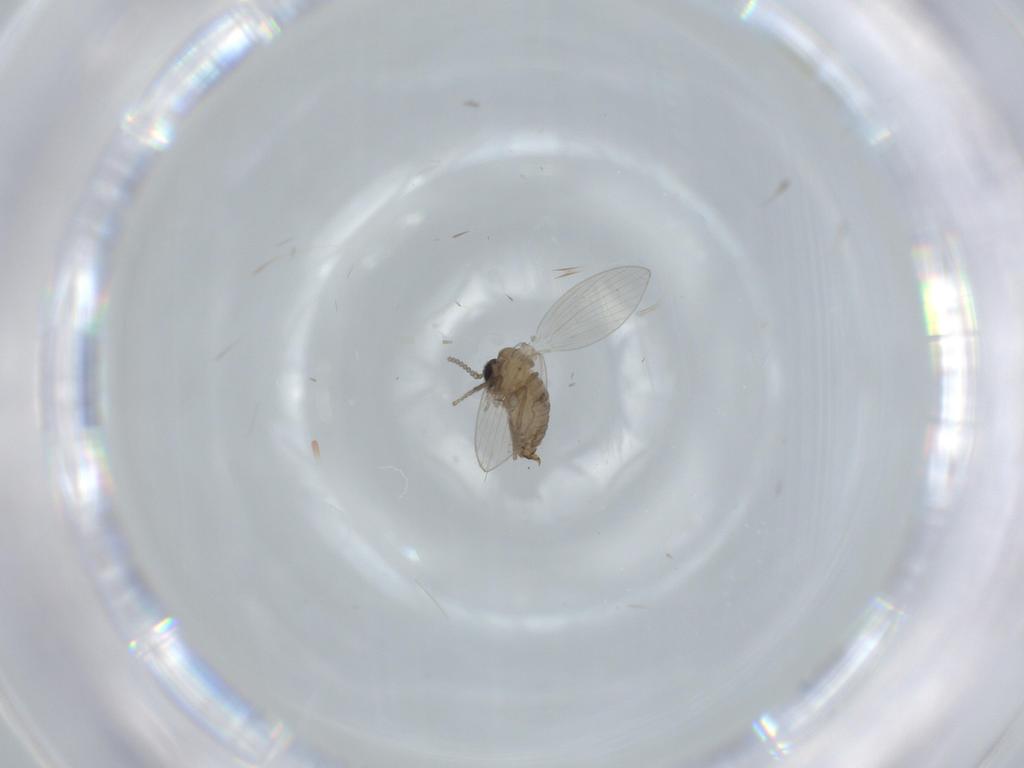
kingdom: Animalia
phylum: Arthropoda
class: Insecta
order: Diptera
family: Psychodidae
